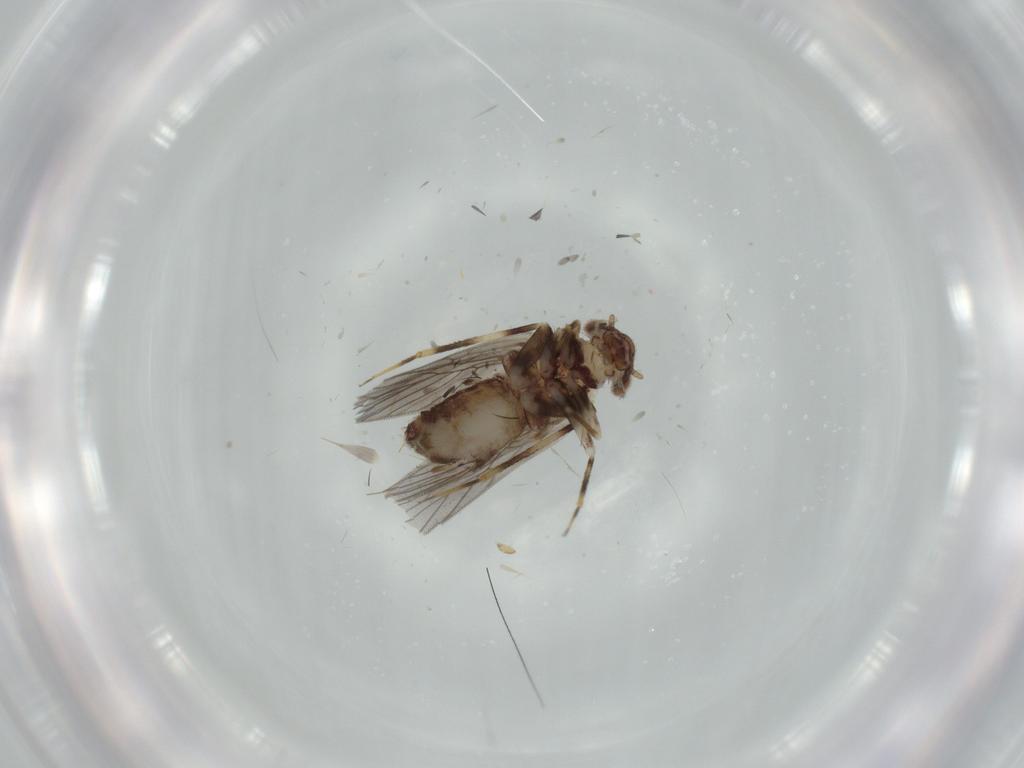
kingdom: Animalia
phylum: Arthropoda
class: Insecta
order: Psocodea
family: Lepidopsocidae
